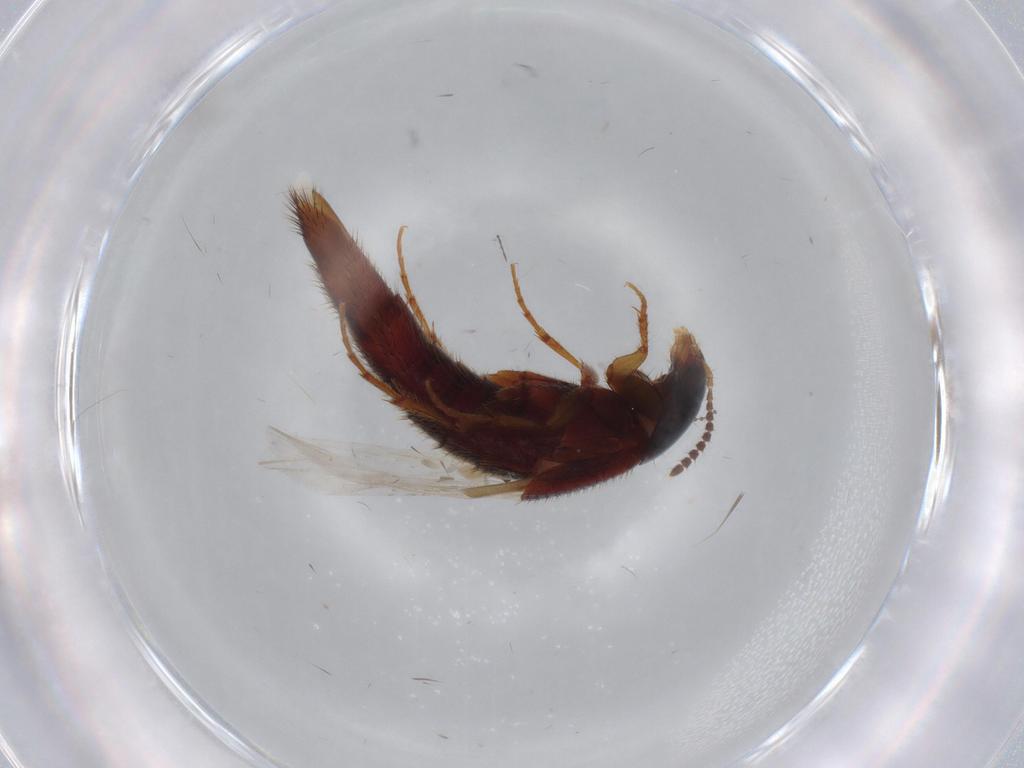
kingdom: Animalia
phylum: Arthropoda
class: Insecta
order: Coleoptera
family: Staphylinidae
